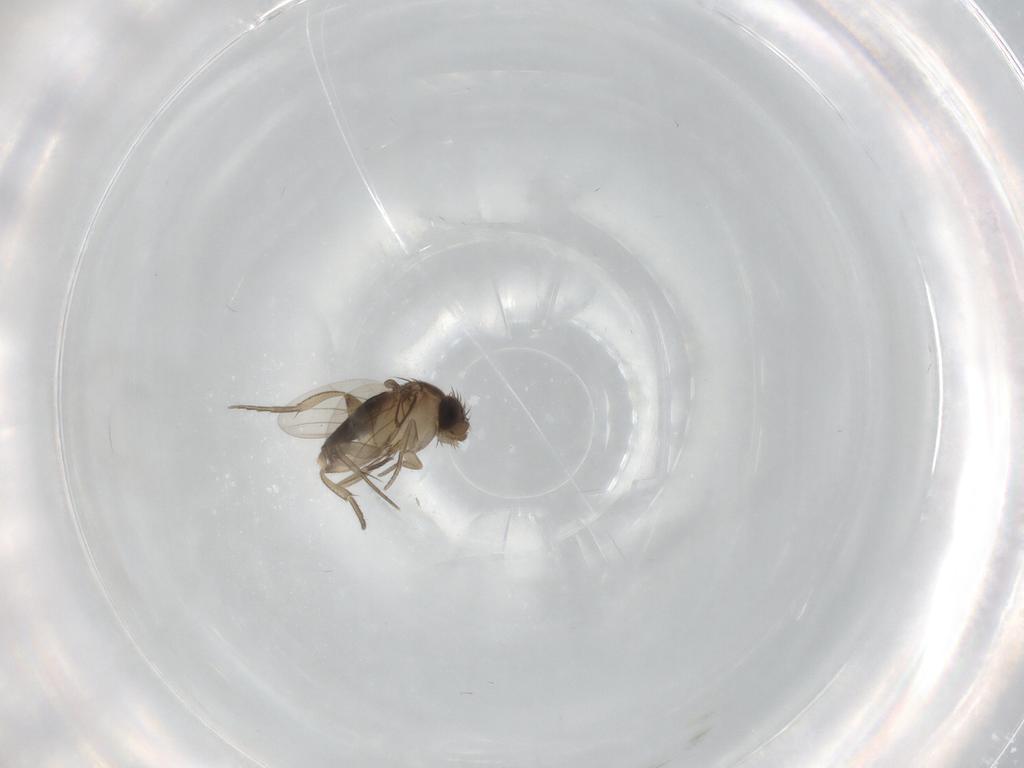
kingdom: Animalia
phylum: Arthropoda
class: Insecta
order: Diptera
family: Phoridae
